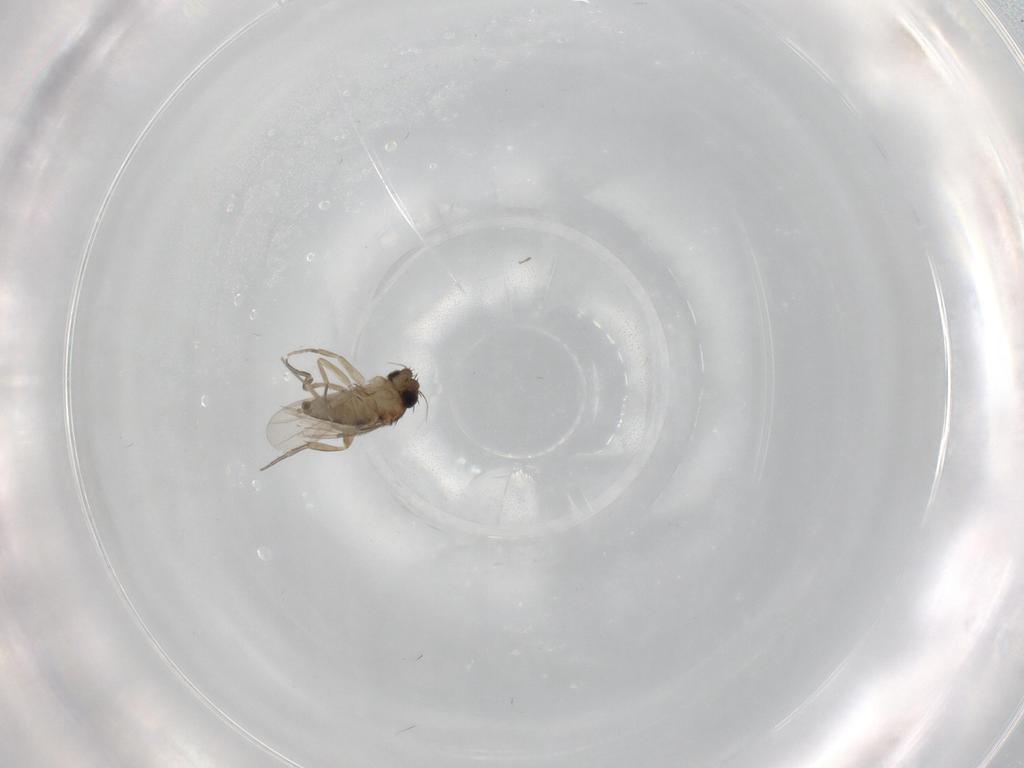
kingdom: Animalia
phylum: Arthropoda
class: Insecta
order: Diptera
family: Phoridae
